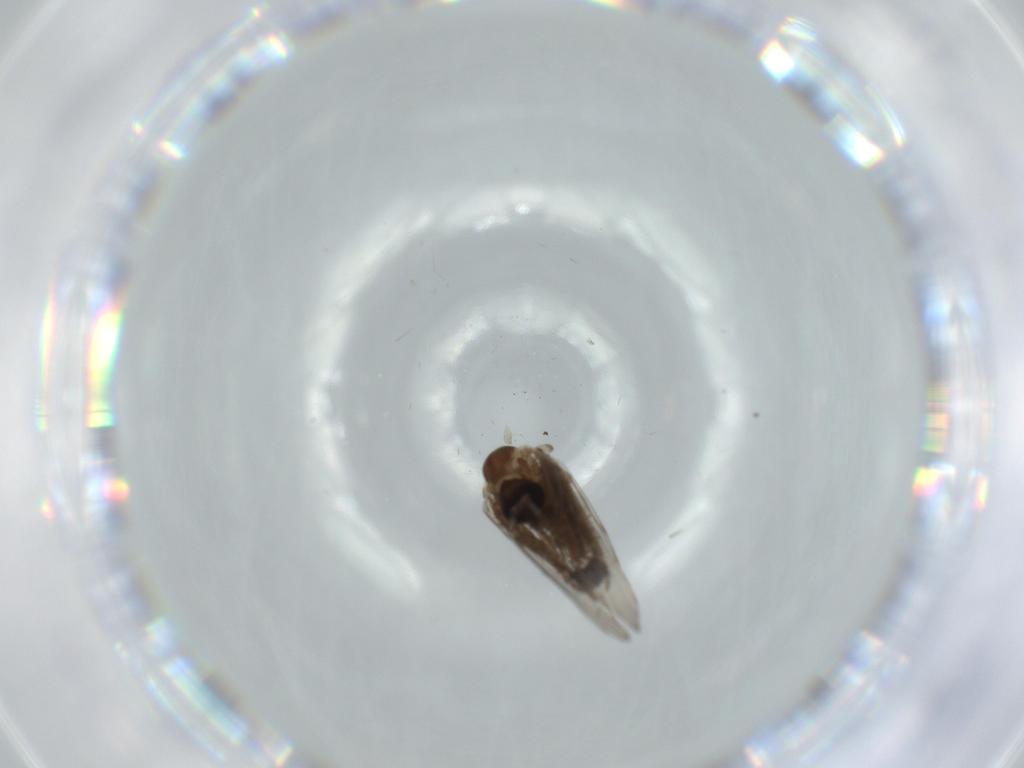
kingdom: Animalia
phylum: Arthropoda
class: Insecta
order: Diptera
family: Psychodidae
